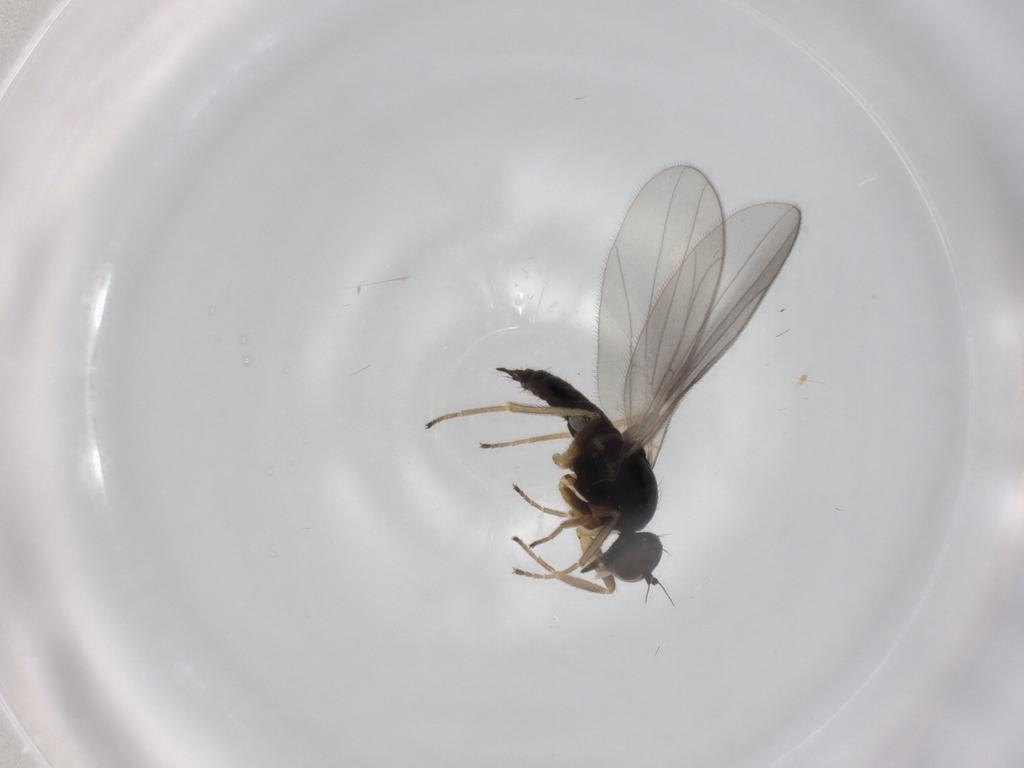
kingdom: Animalia
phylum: Arthropoda
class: Insecta
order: Diptera
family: Hybotidae
